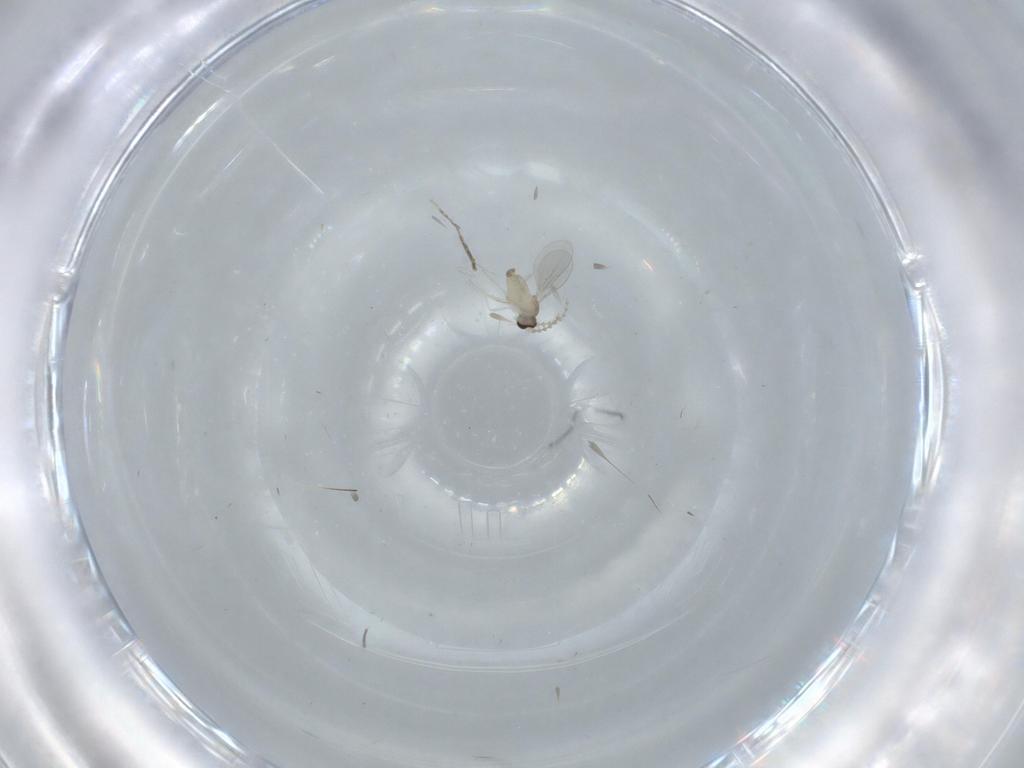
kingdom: Animalia
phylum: Arthropoda
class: Insecta
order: Diptera
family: Cecidomyiidae
